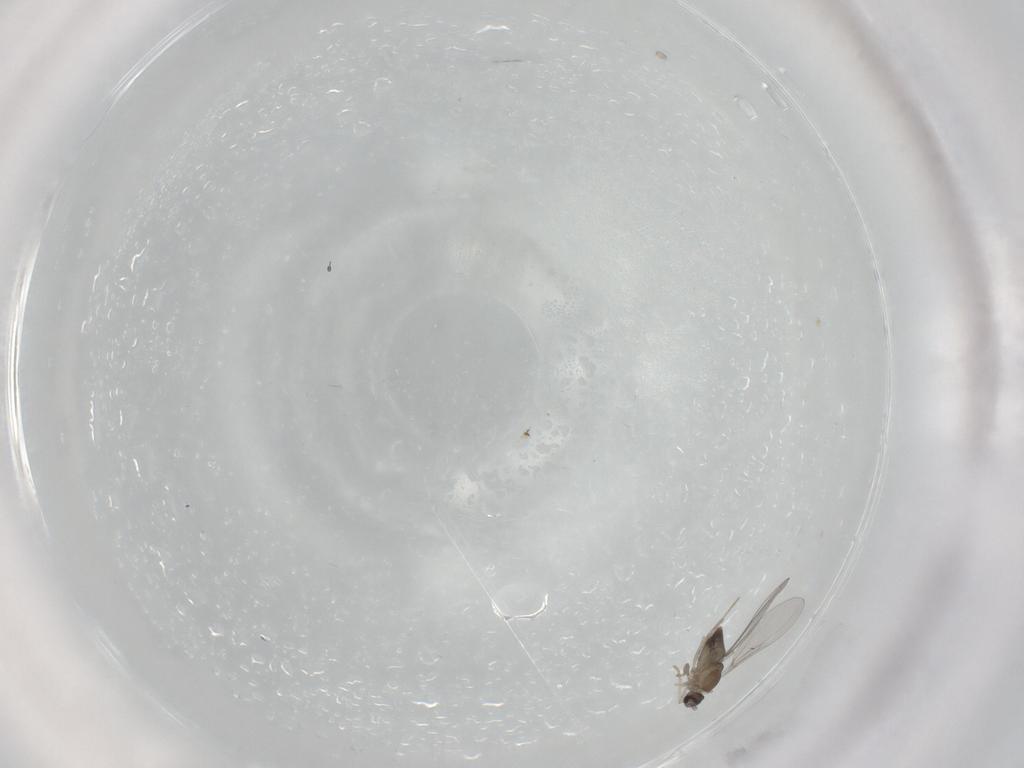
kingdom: Animalia
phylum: Arthropoda
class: Insecta
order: Diptera
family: Cecidomyiidae
